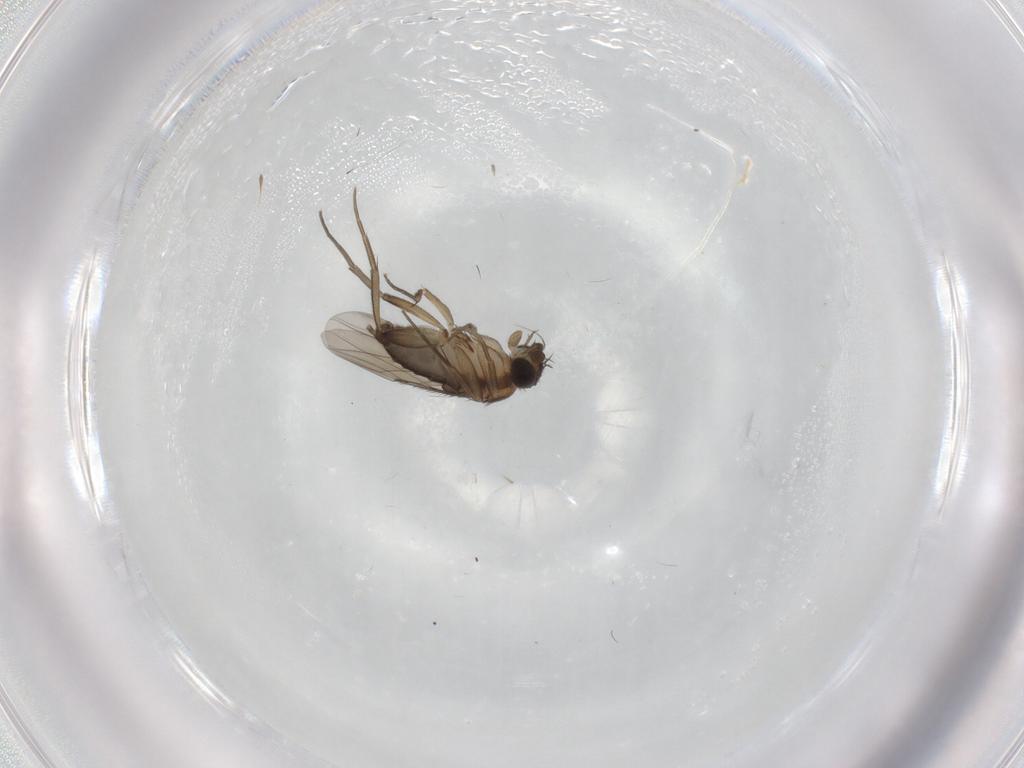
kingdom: Animalia
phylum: Arthropoda
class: Insecta
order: Diptera
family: Phoridae
